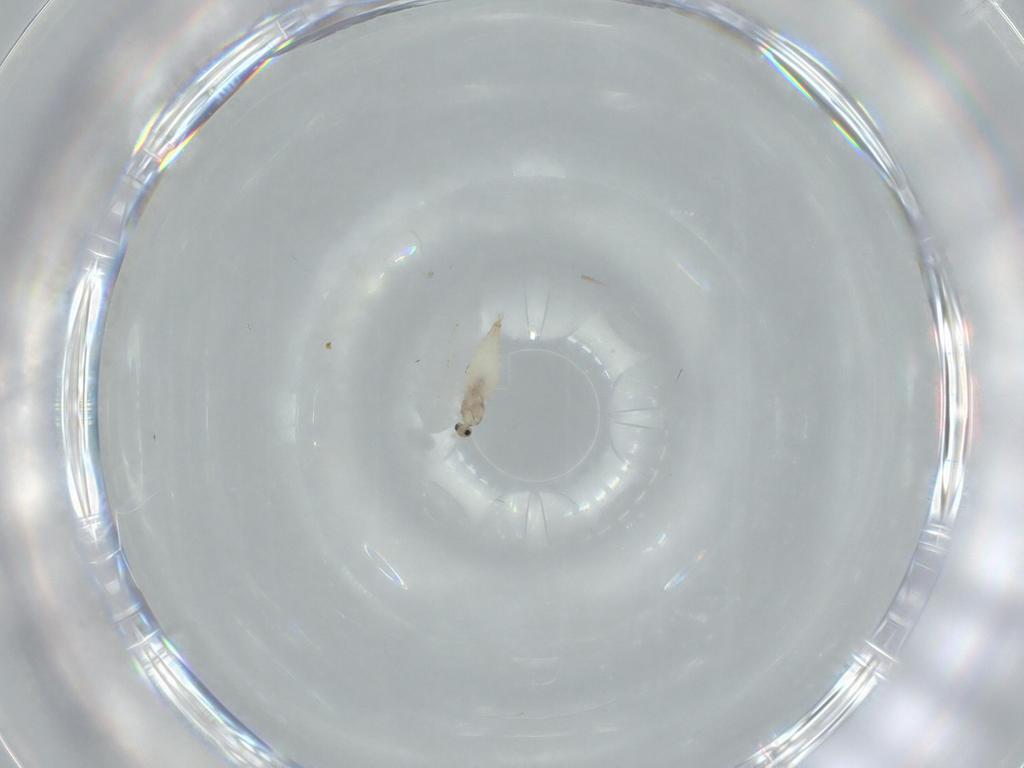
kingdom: Animalia
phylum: Arthropoda
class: Insecta
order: Diptera
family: Cecidomyiidae
